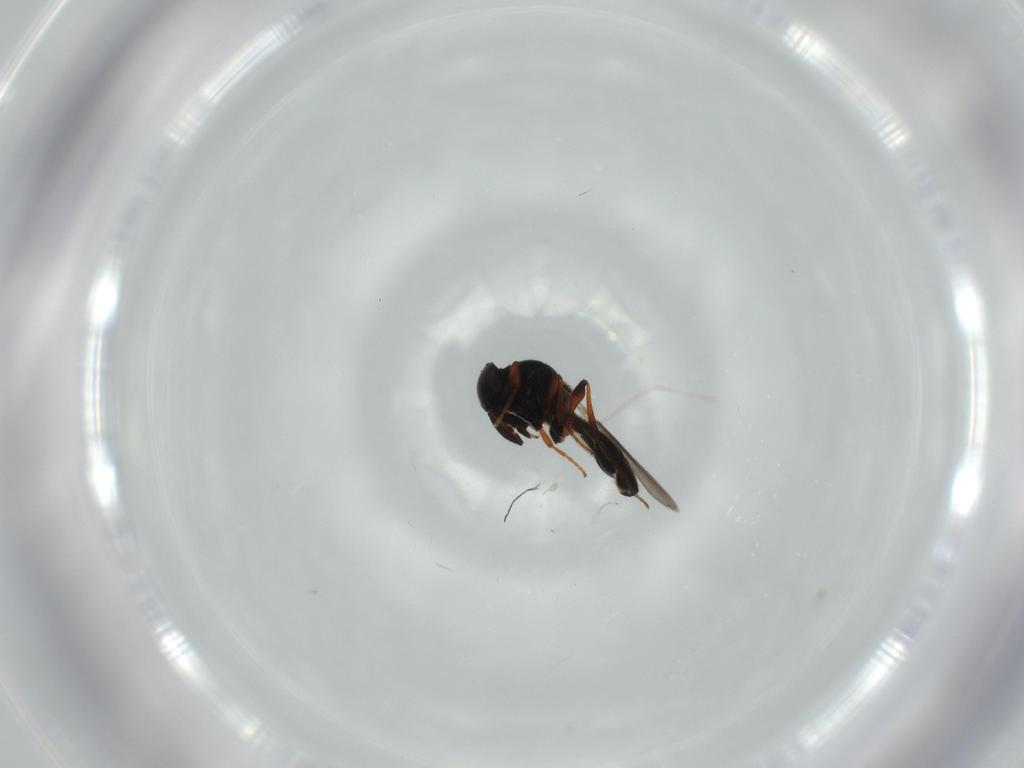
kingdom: Animalia
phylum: Arthropoda
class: Insecta
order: Hymenoptera
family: Platygastridae
